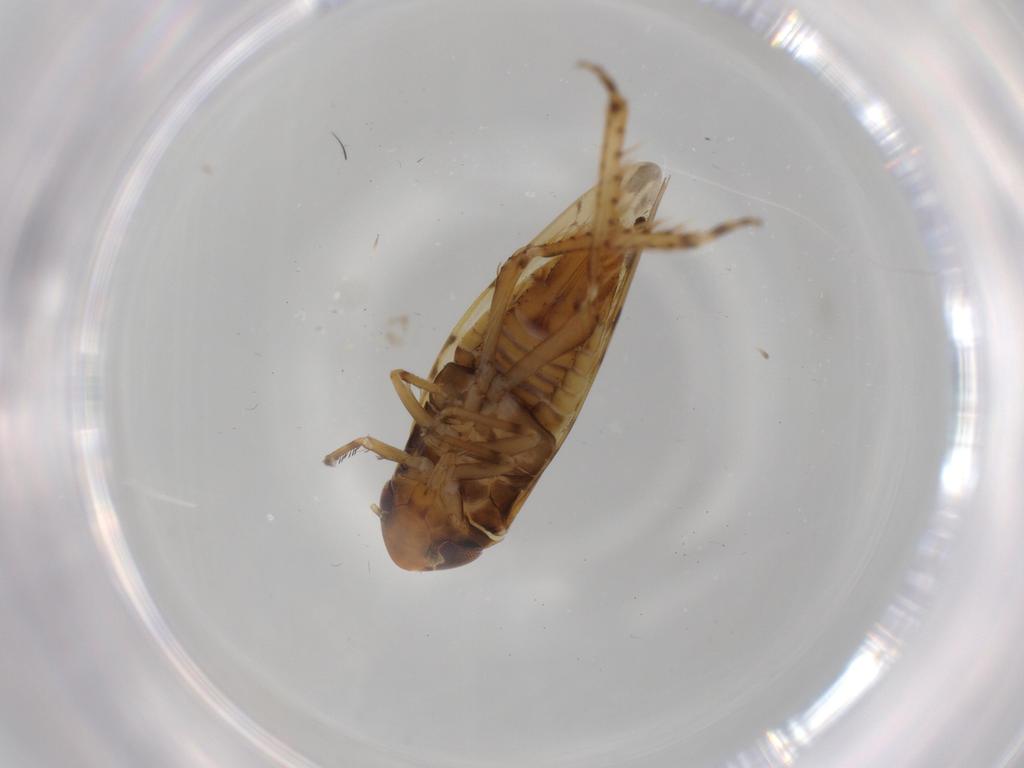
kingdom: Animalia
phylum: Arthropoda
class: Insecta
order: Hemiptera
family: Cicadellidae
